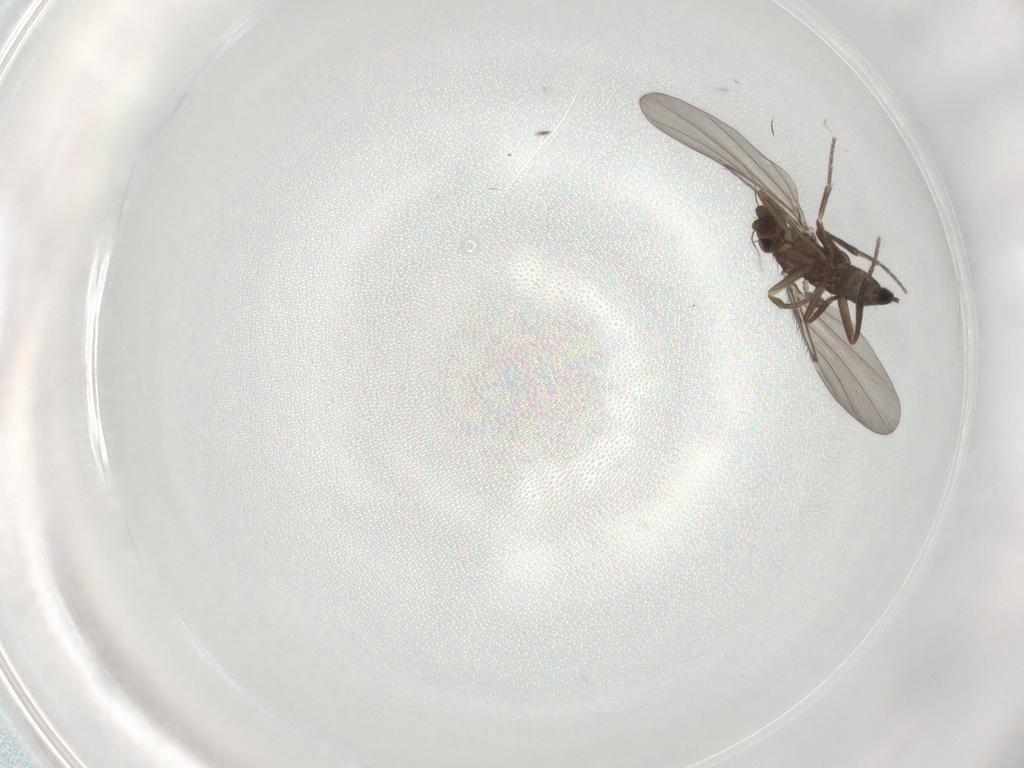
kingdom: Animalia
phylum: Arthropoda
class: Insecta
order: Diptera
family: Phoridae
